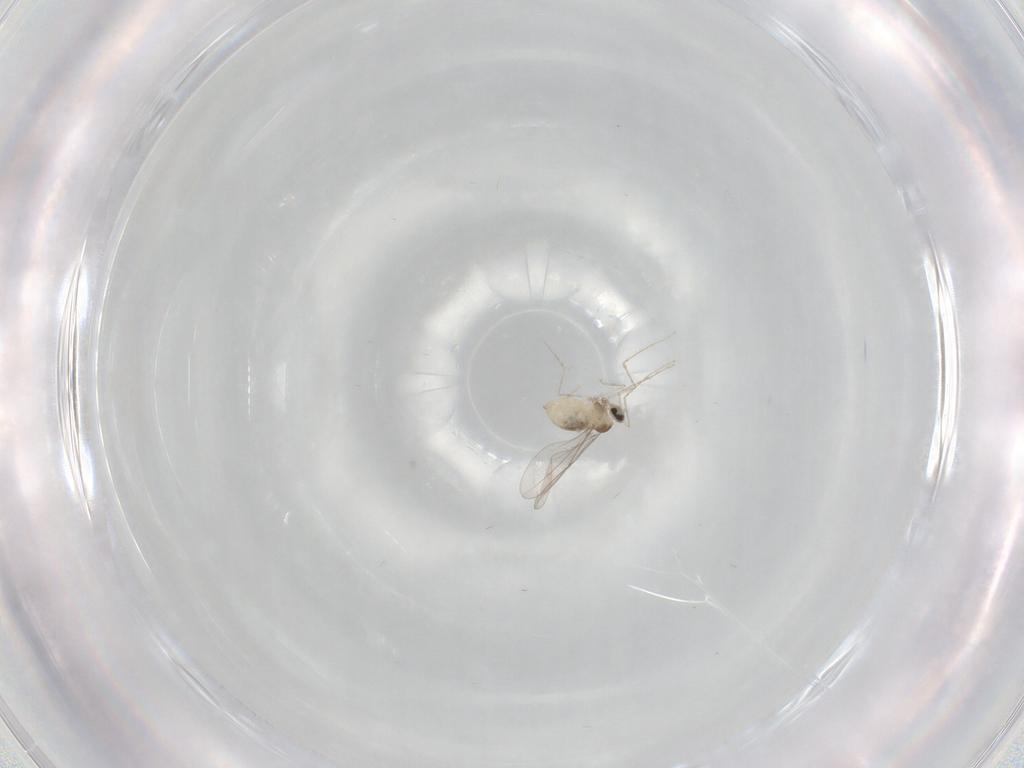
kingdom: Animalia
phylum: Arthropoda
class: Insecta
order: Diptera
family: Cecidomyiidae
